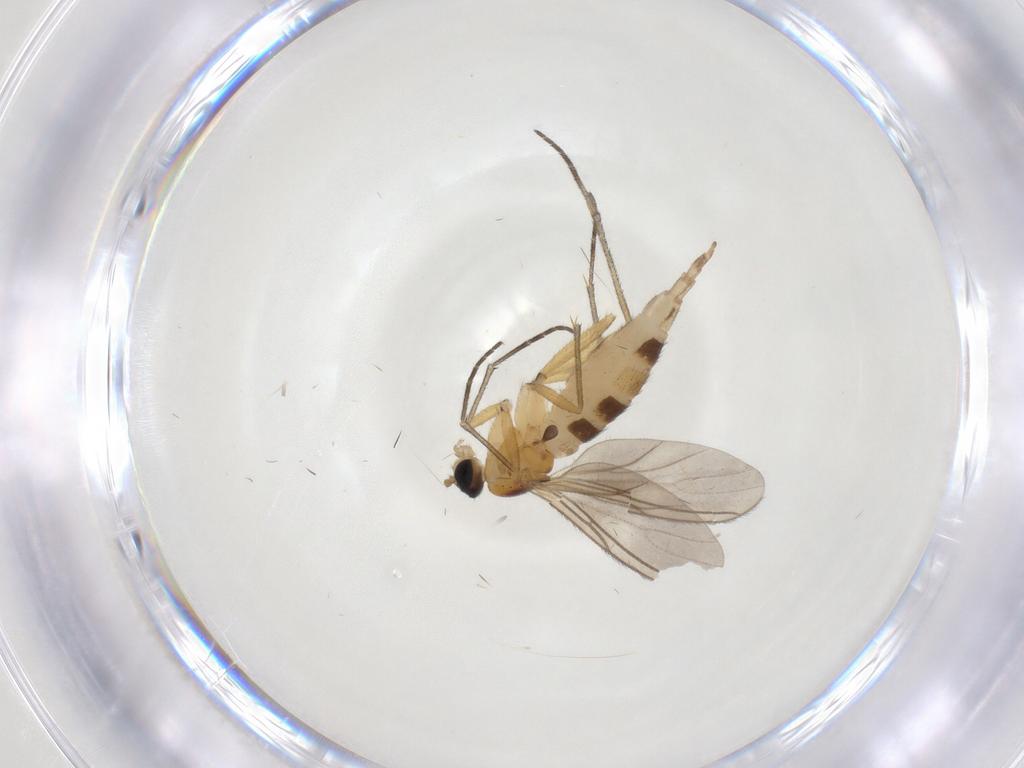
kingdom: Animalia
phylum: Arthropoda
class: Insecta
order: Diptera
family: Sciaridae
